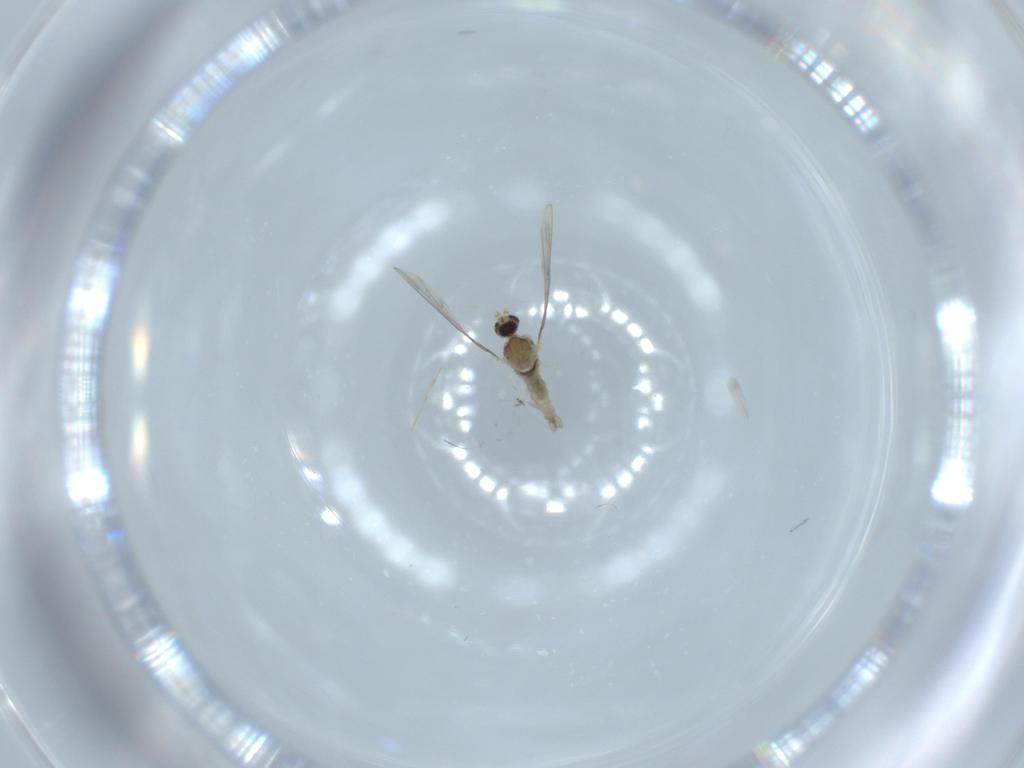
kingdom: Animalia
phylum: Arthropoda
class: Insecta
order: Diptera
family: Cecidomyiidae
